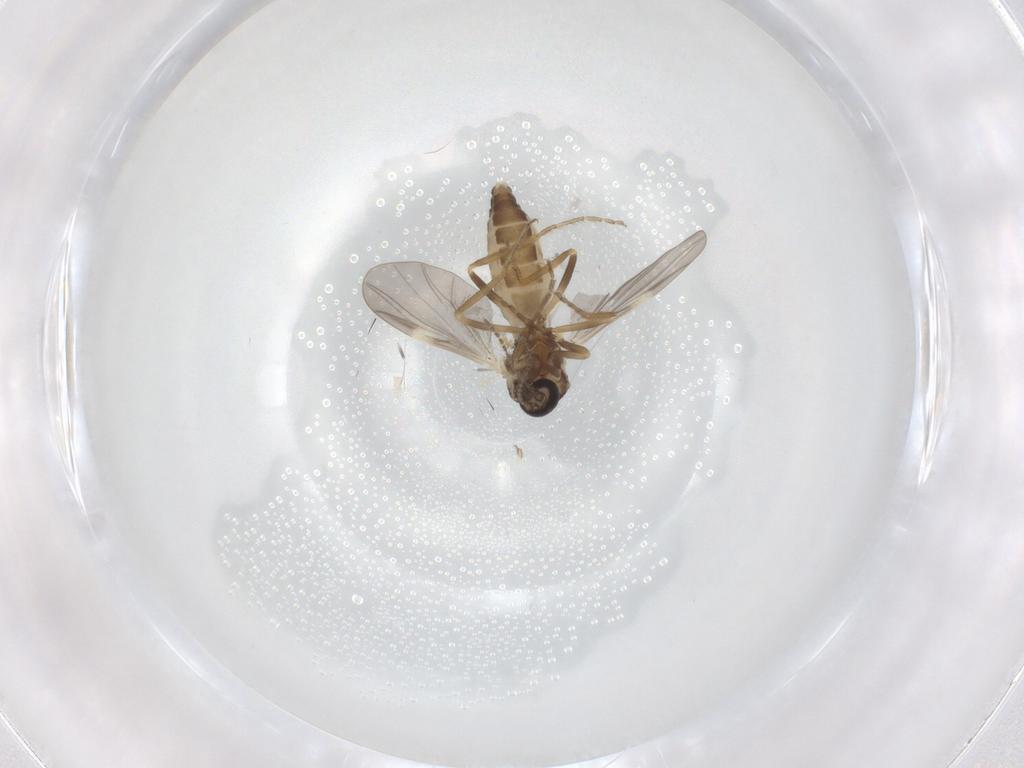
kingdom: Animalia
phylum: Arthropoda
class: Insecta
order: Diptera
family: Ceratopogonidae
